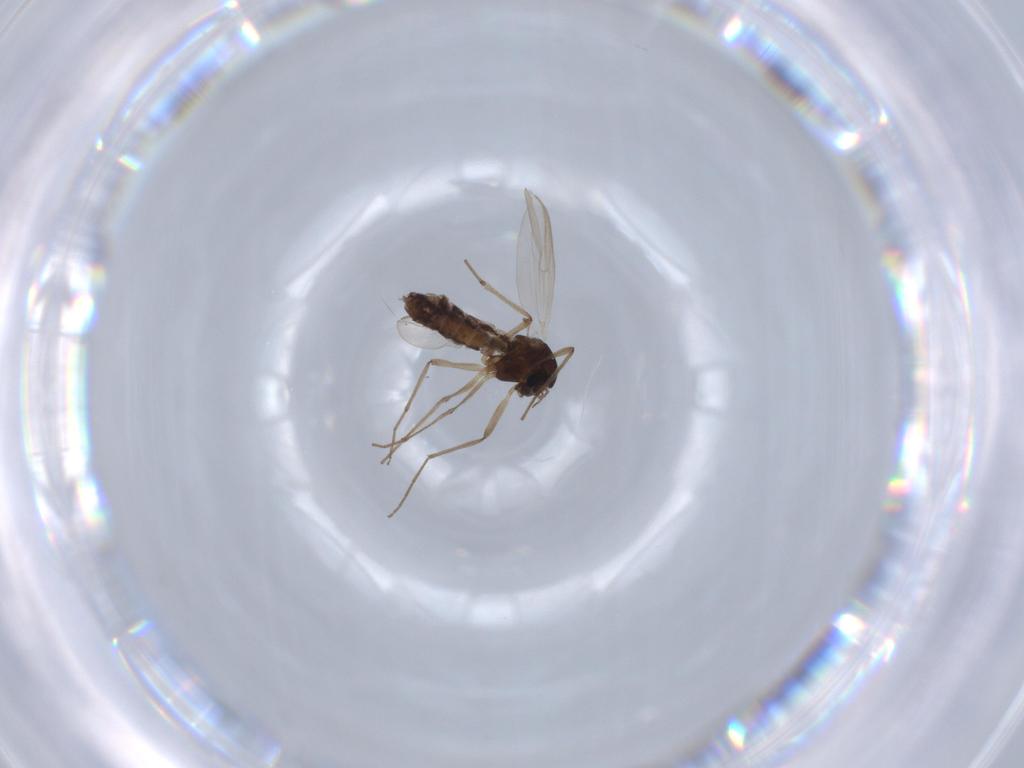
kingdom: Animalia
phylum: Arthropoda
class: Insecta
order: Diptera
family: Chironomidae
